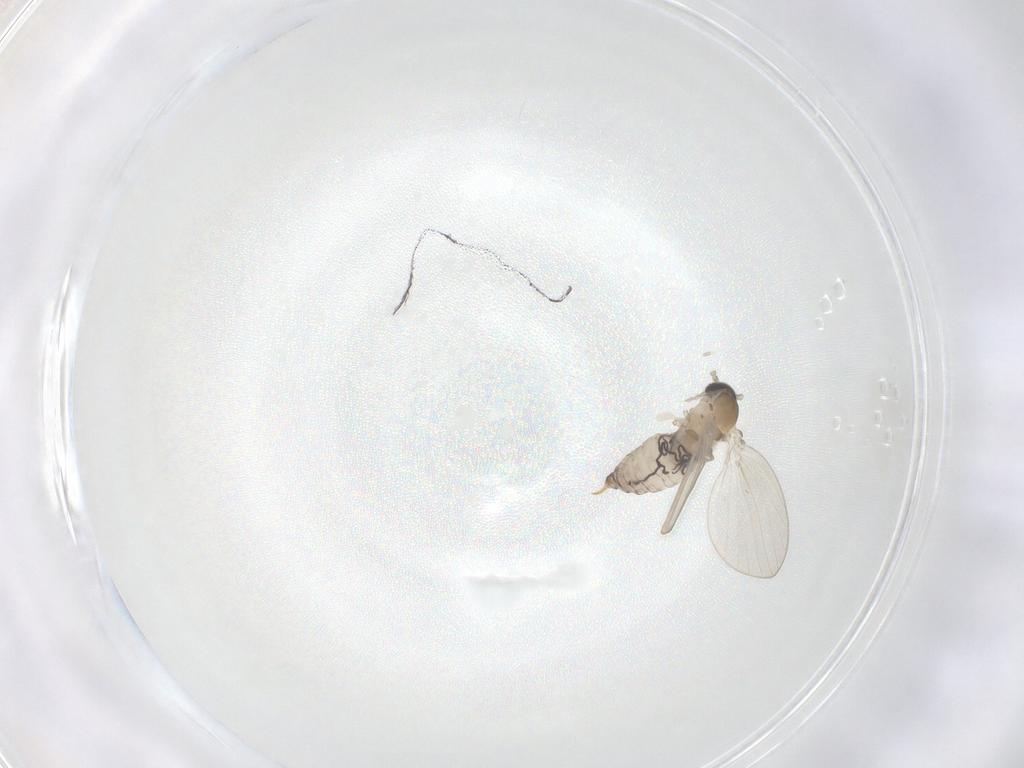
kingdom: Animalia
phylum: Arthropoda
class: Insecta
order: Diptera
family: Psychodidae
